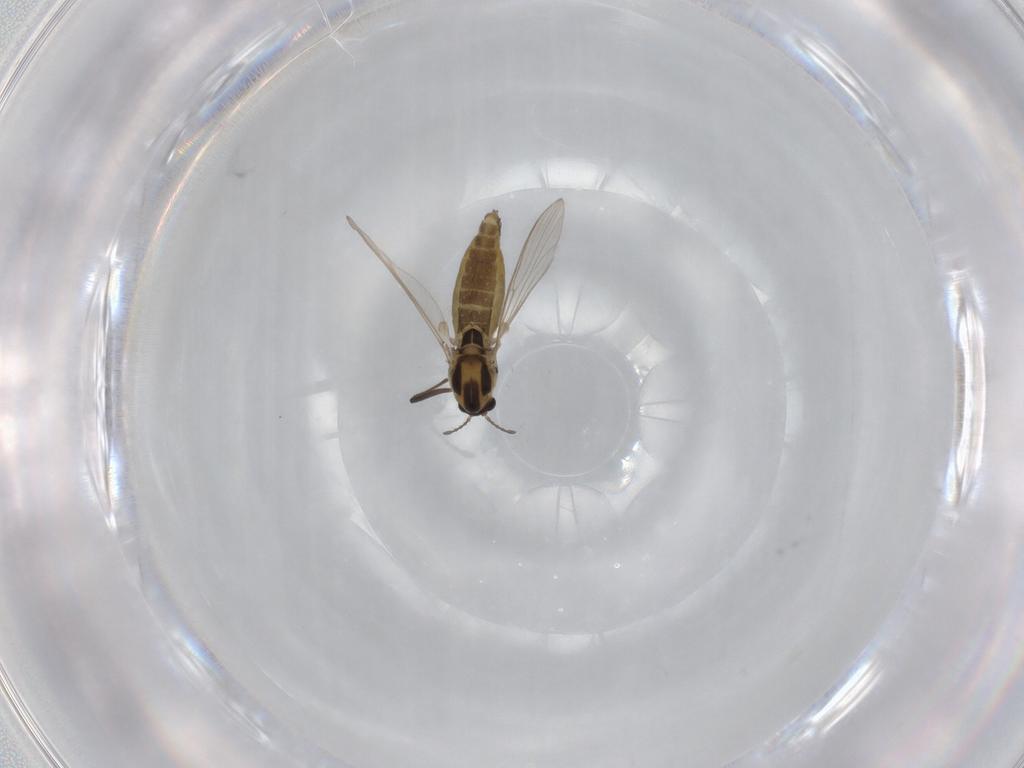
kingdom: Animalia
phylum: Arthropoda
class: Insecta
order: Diptera
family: Chironomidae
